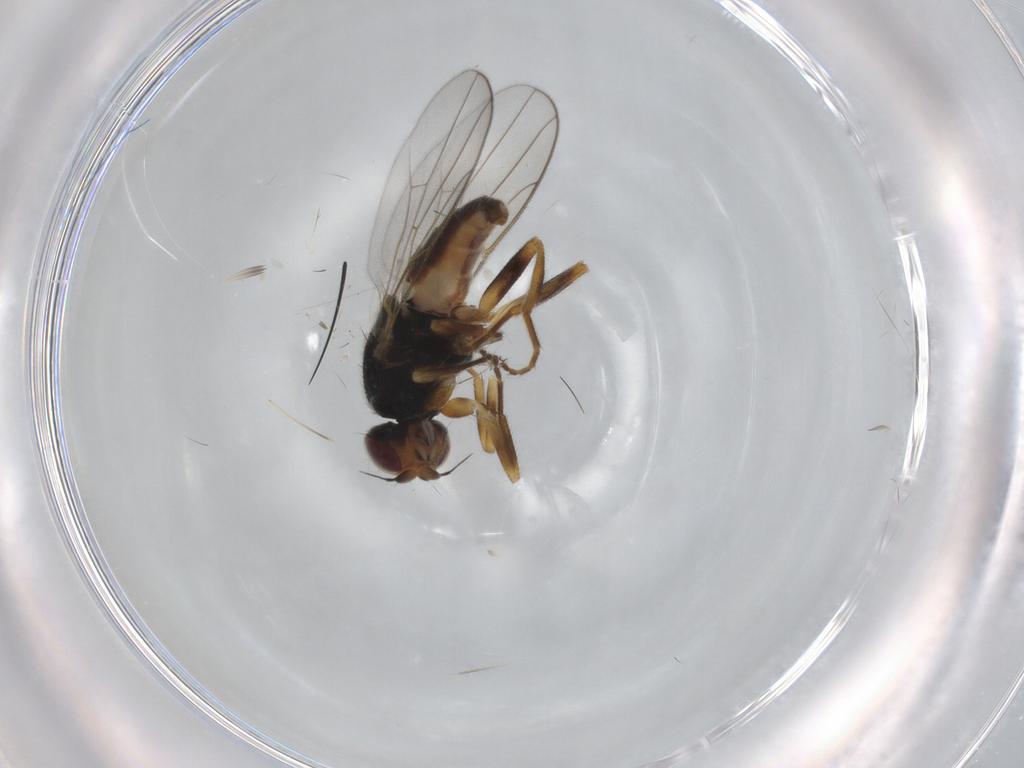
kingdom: Animalia
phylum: Arthropoda
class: Insecta
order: Diptera
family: Chloropidae
